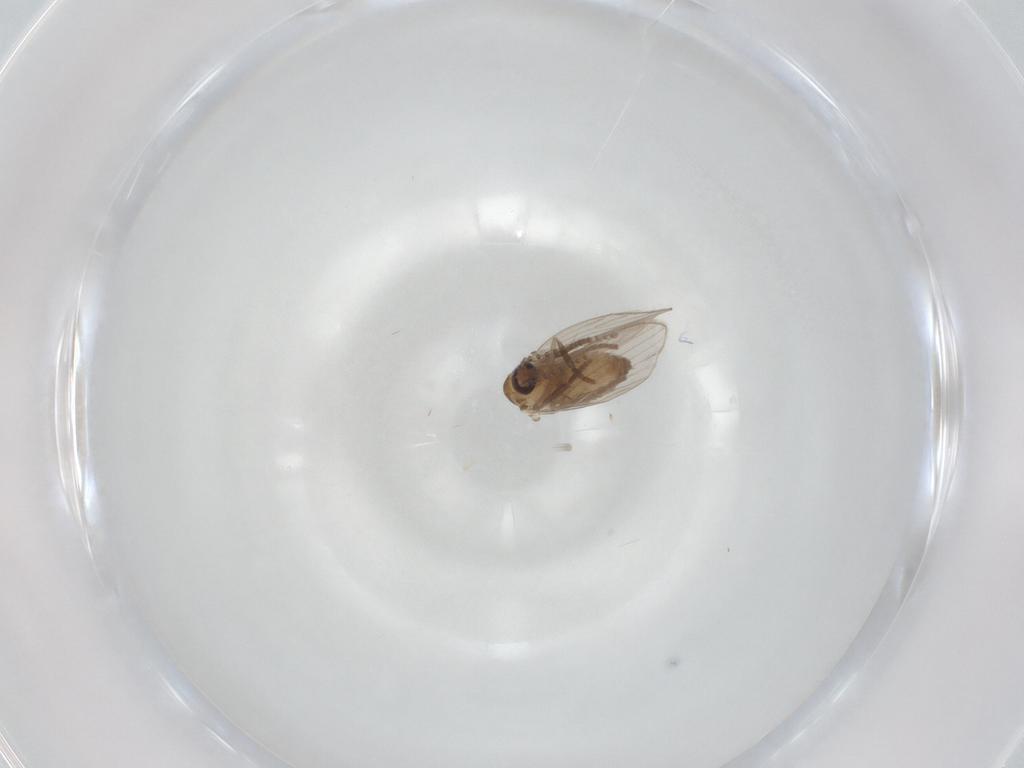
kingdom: Animalia
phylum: Arthropoda
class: Insecta
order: Diptera
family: Psychodidae
